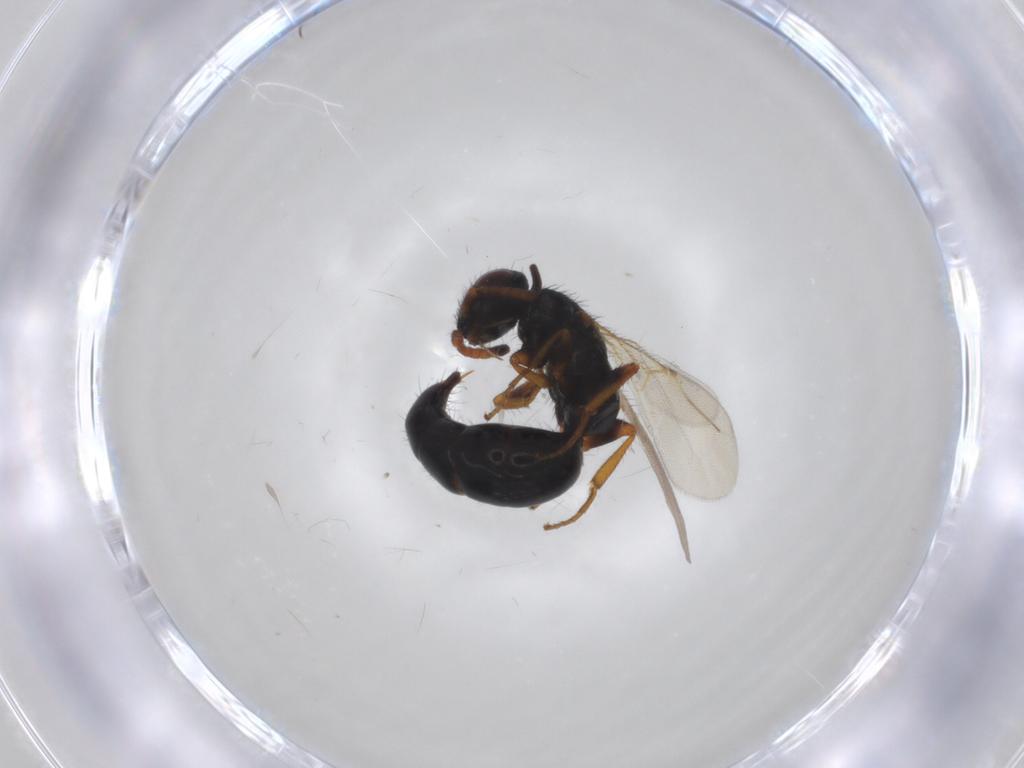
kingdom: Animalia
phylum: Arthropoda
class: Insecta
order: Hymenoptera
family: Bethylidae
